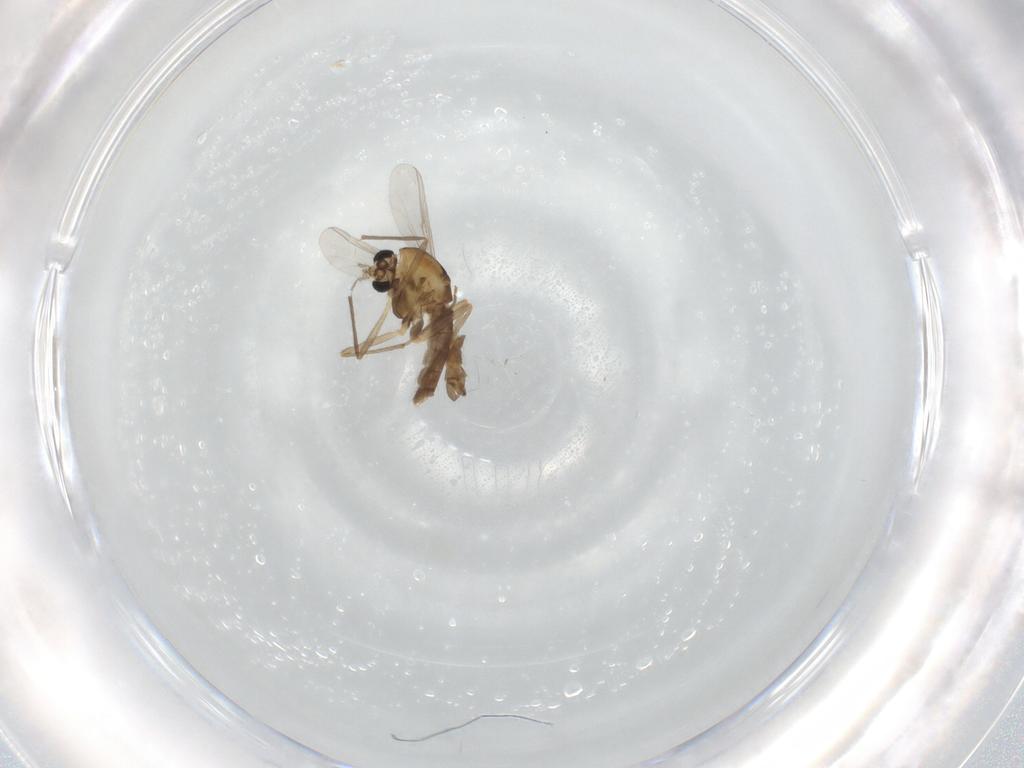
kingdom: Animalia
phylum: Arthropoda
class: Insecta
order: Diptera
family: Chironomidae
